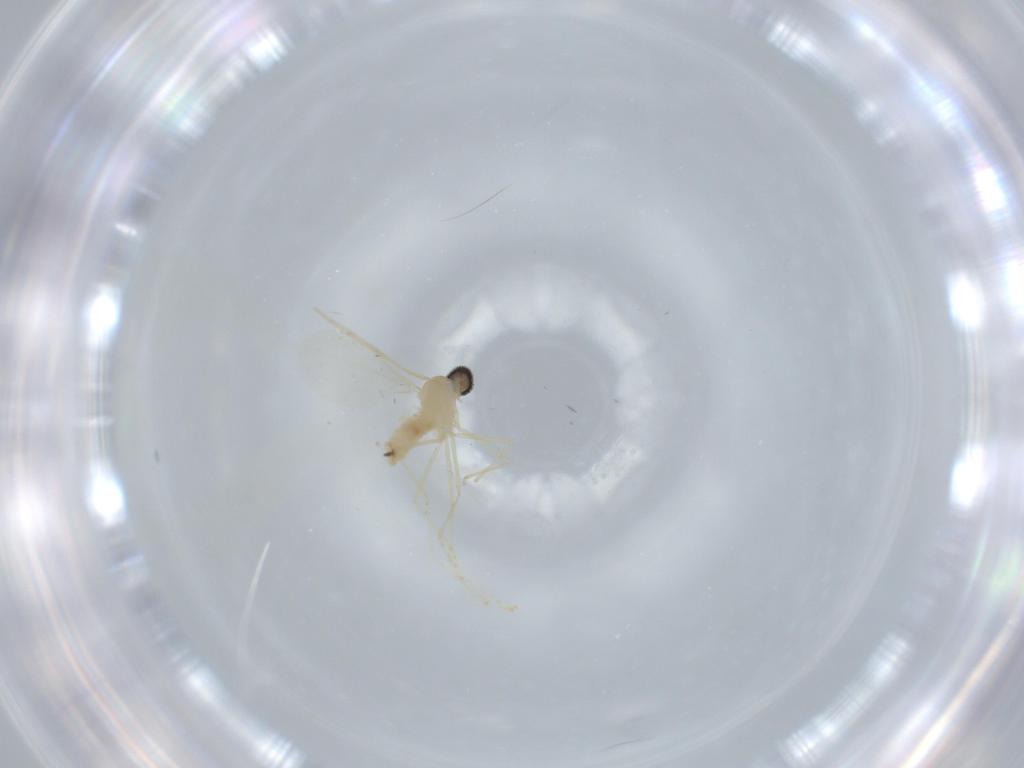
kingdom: Animalia
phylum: Arthropoda
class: Insecta
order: Diptera
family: Cecidomyiidae
